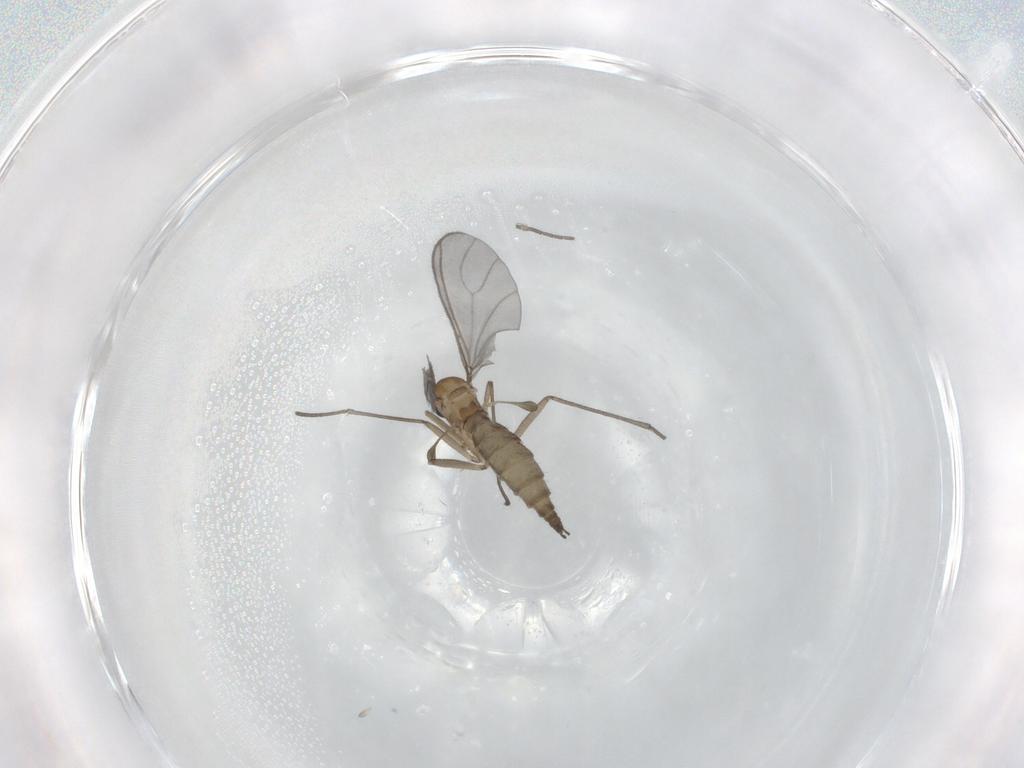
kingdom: Animalia
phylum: Arthropoda
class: Insecta
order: Diptera
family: Sciaridae
